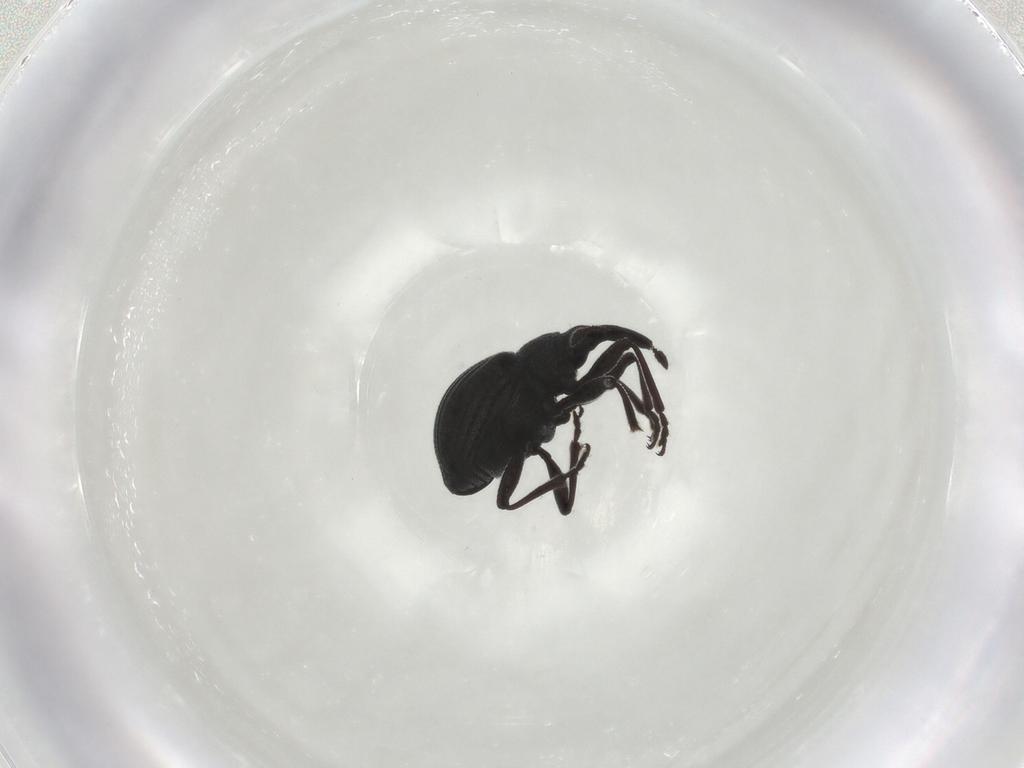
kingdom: Animalia
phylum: Arthropoda
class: Insecta
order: Coleoptera
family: Brentidae
